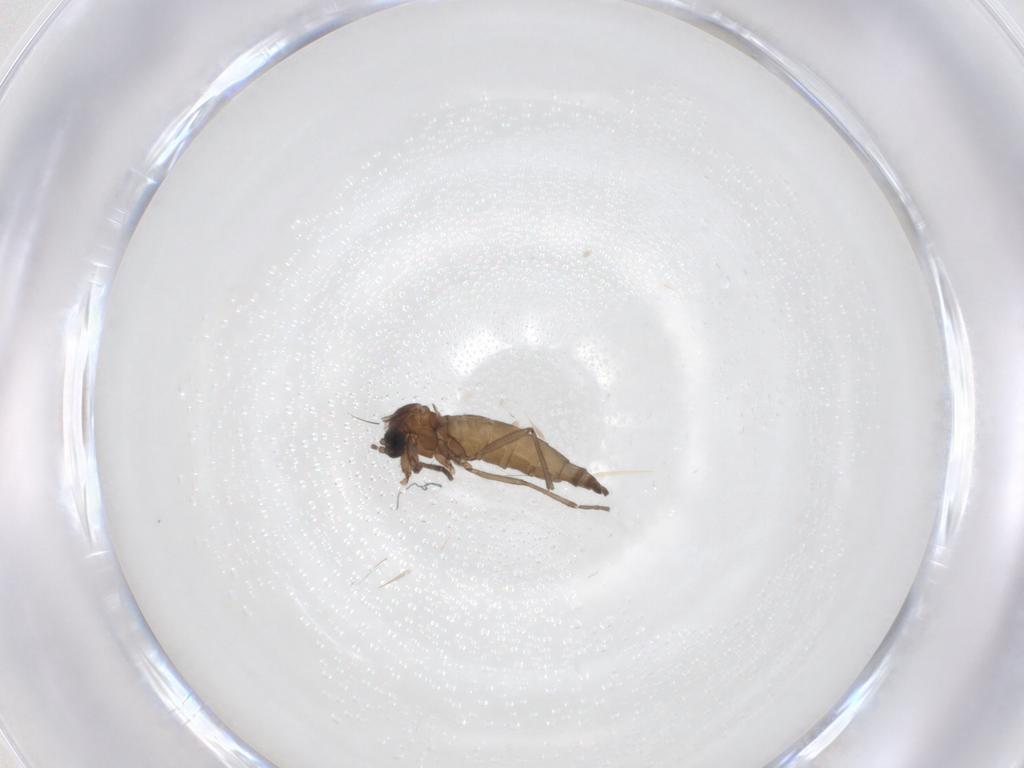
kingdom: Animalia
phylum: Arthropoda
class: Insecta
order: Diptera
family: Sciaridae
